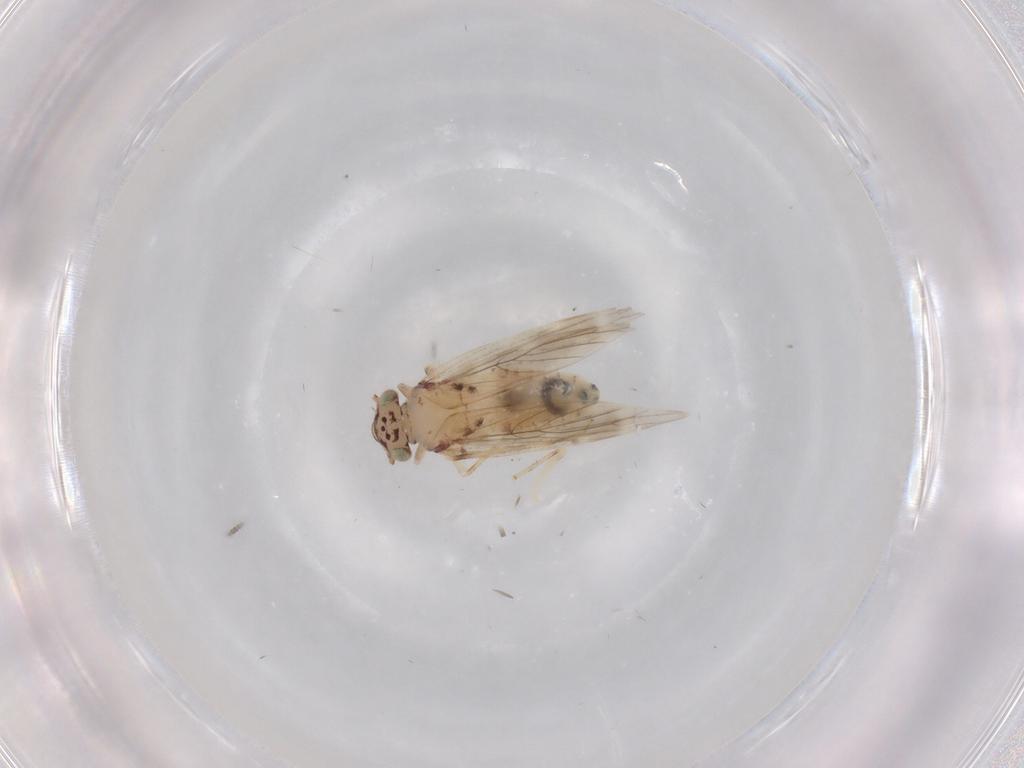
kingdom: Animalia
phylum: Arthropoda
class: Insecta
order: Psocodea
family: Lepidopsocidae
